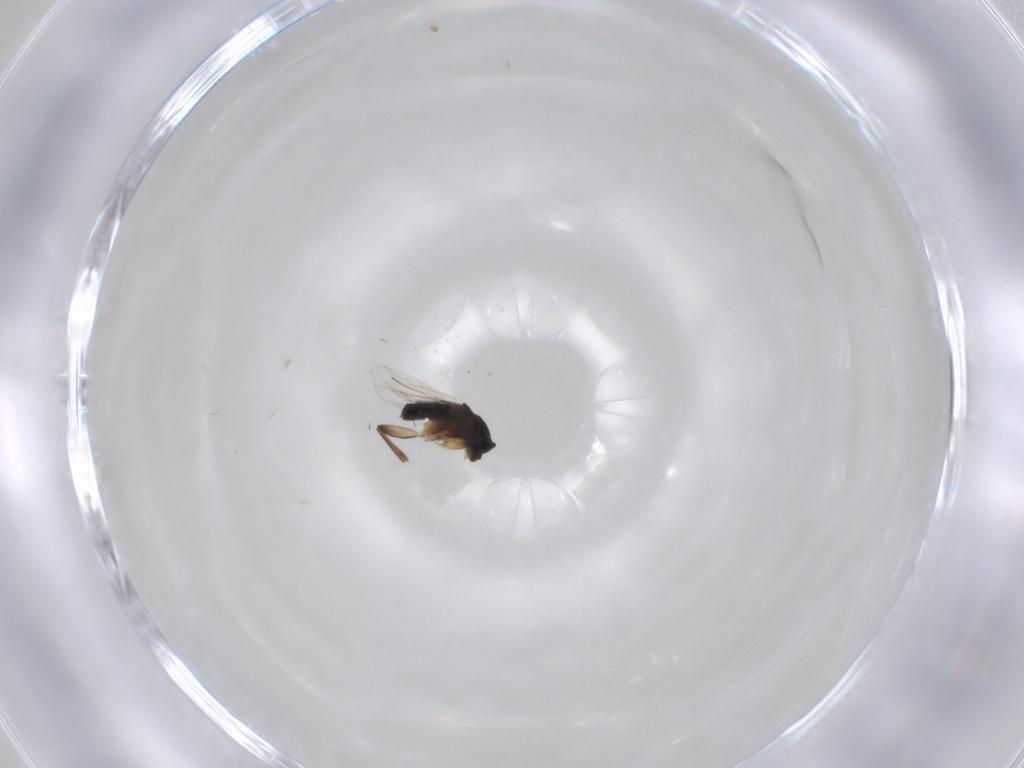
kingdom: Animalia
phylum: Arthropoda
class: Insecta
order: Diptera
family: Phoridae
